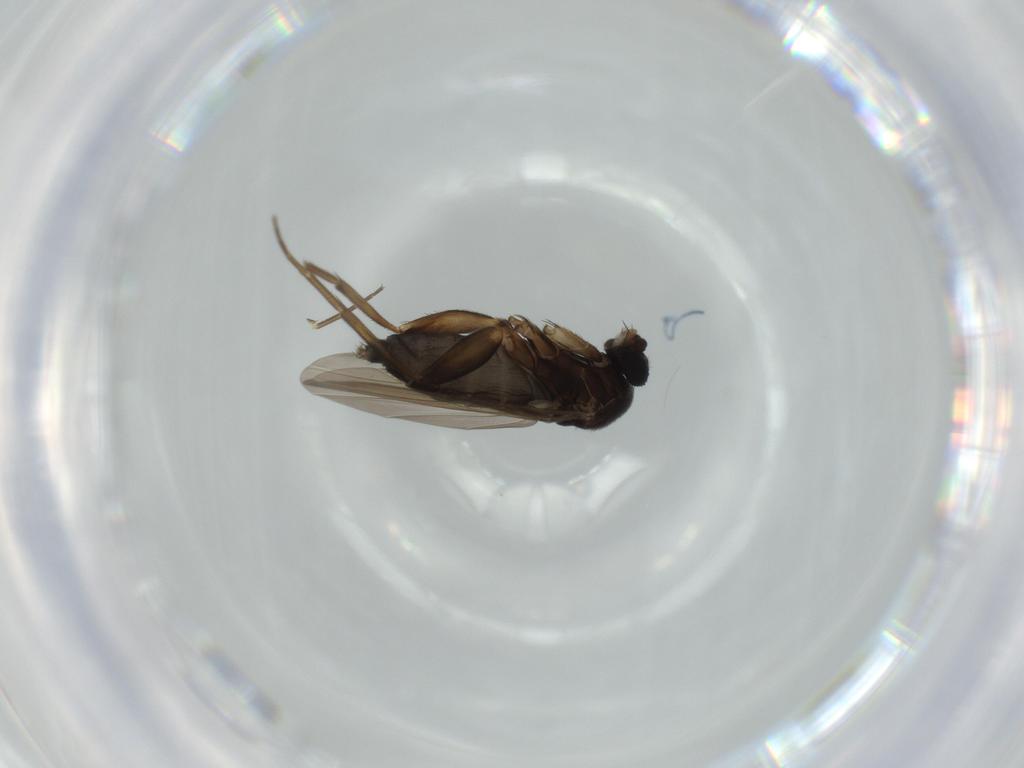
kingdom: Animalia
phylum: Arthropoda
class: Insecta
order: Diptera
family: Phoridae
